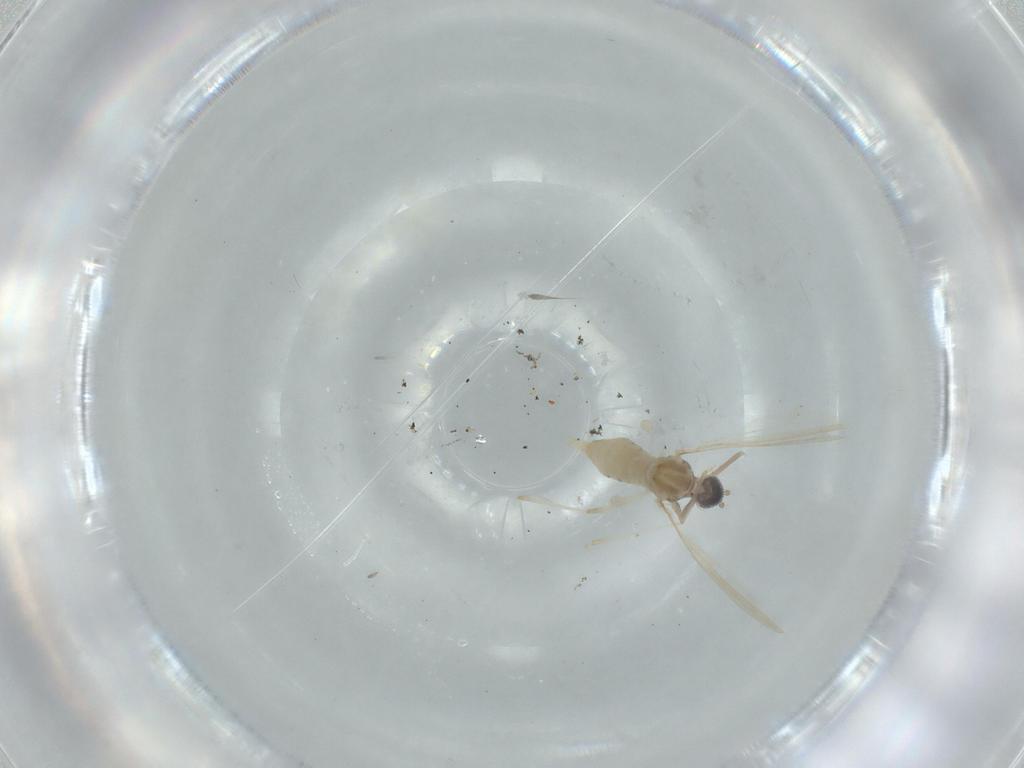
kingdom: Animalia
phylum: Arthropoda
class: Insecta
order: Diptera
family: Cecidomyiidae
